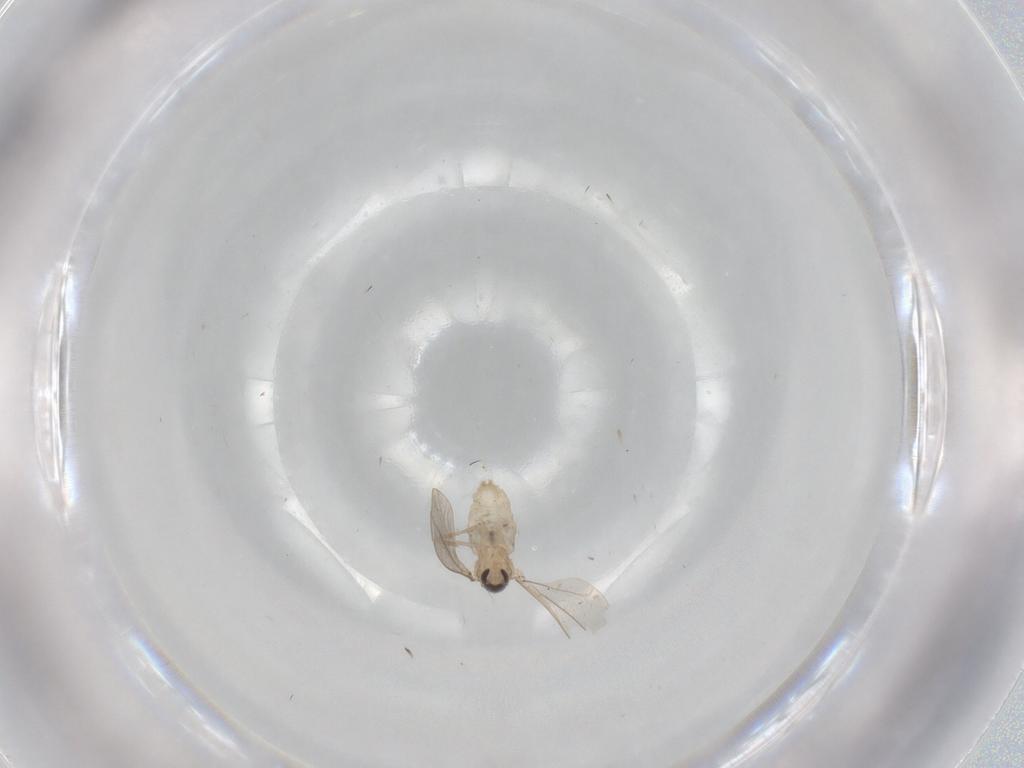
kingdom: Animalia
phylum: Arthropoda
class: Insecta
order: Diptera
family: Cecidomyiidae
